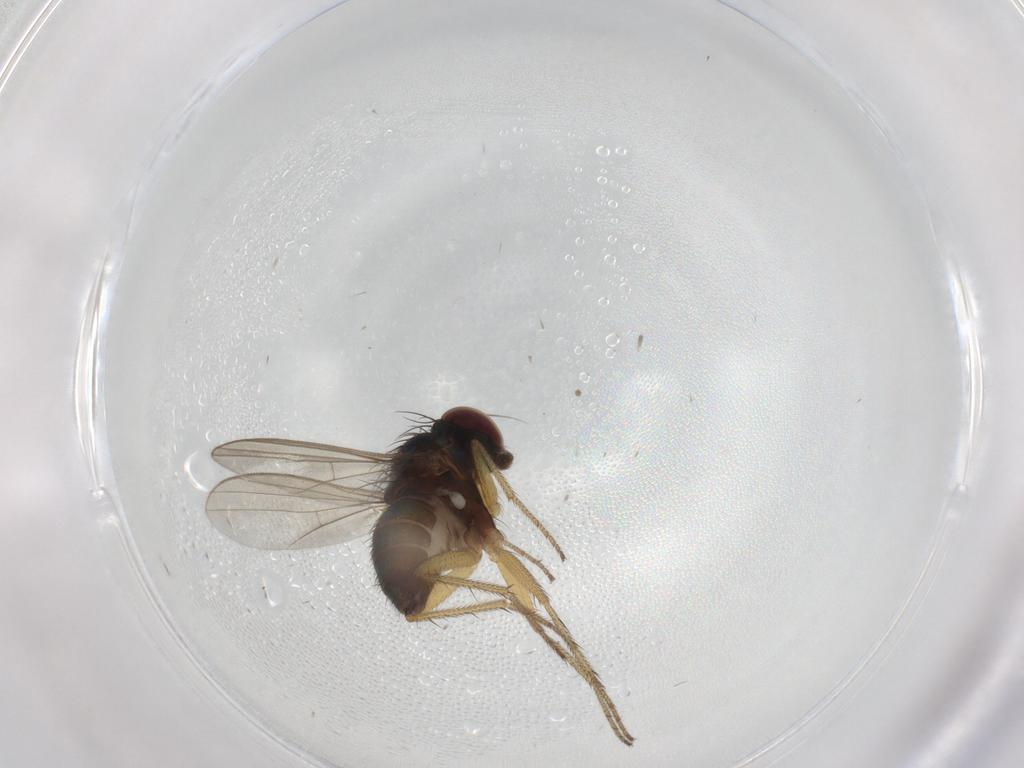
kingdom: Animalia
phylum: Arthropoda
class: Insecta
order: Diptera
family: Dolichopodidae
